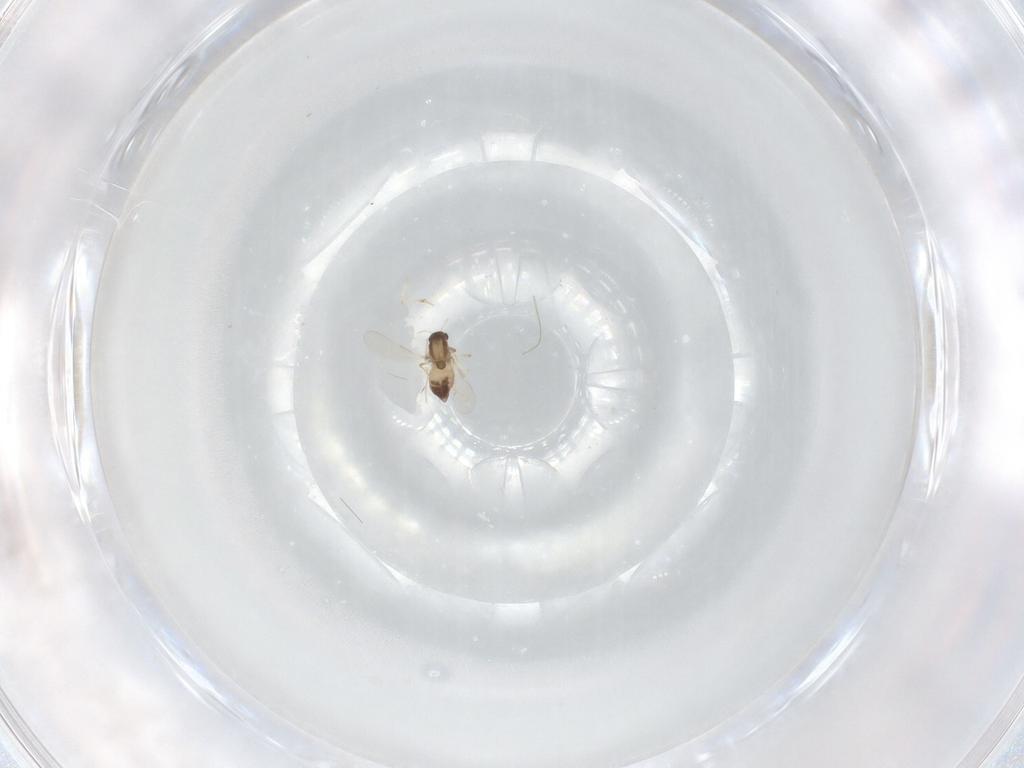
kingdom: Animalia
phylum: Arthropoda
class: Insecta
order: Diptera
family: Chironomidae
